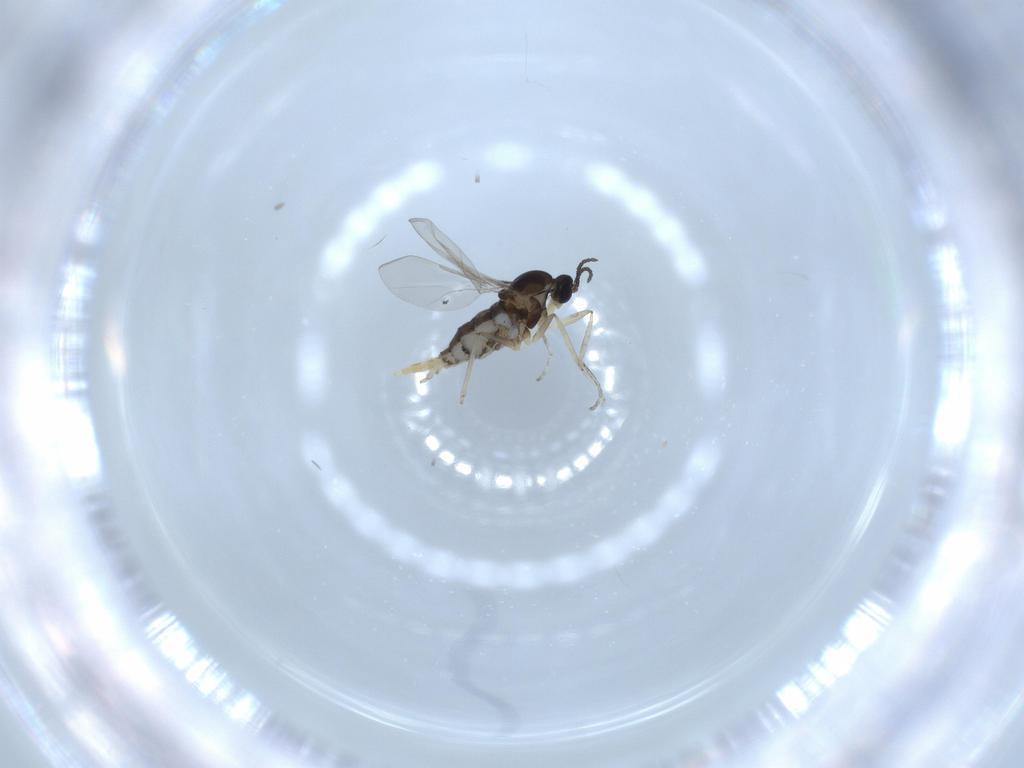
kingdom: Animalia
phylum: Arthropoda
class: Insecta
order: Diptera
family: Cecidomyiidae
